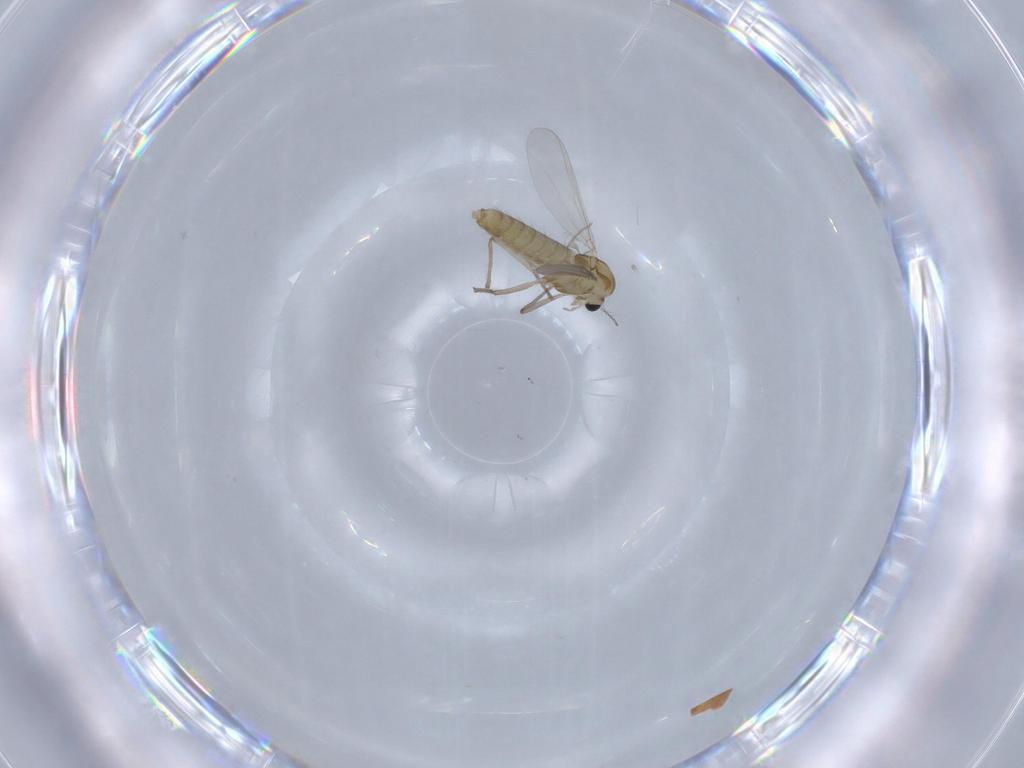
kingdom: Animalia
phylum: Arthropoda
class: Insecta
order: Diptera
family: Chironomidae
